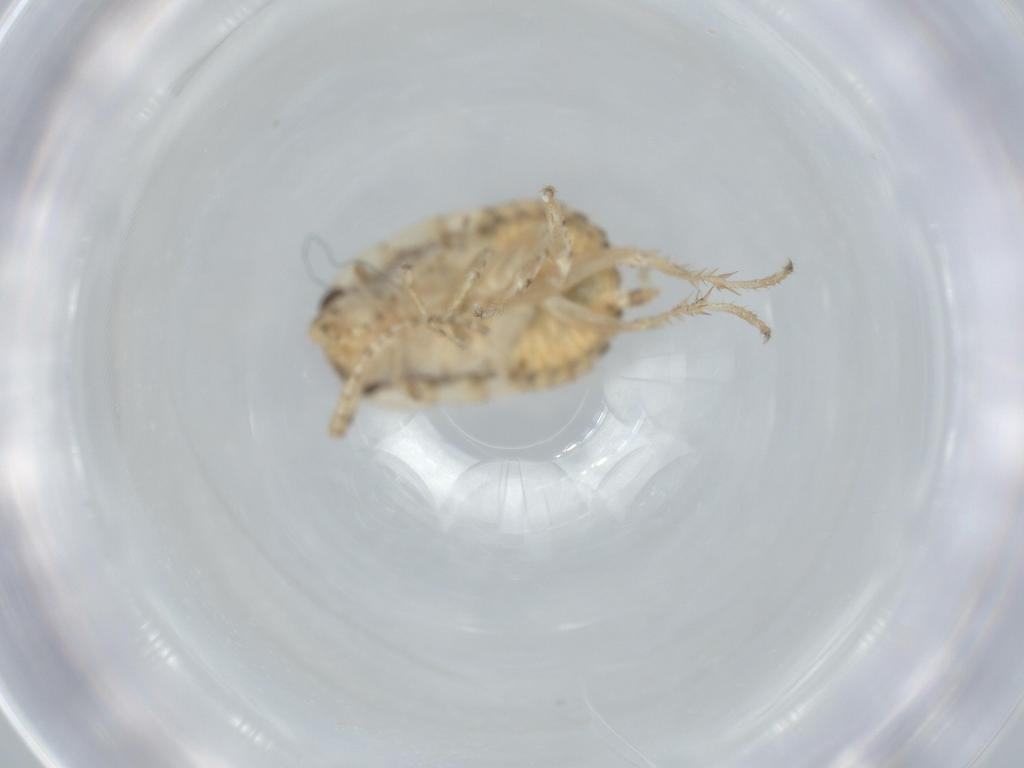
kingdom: Animalia
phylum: Arthropoda
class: Insecta
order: Blattodea
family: Ectobiidae
